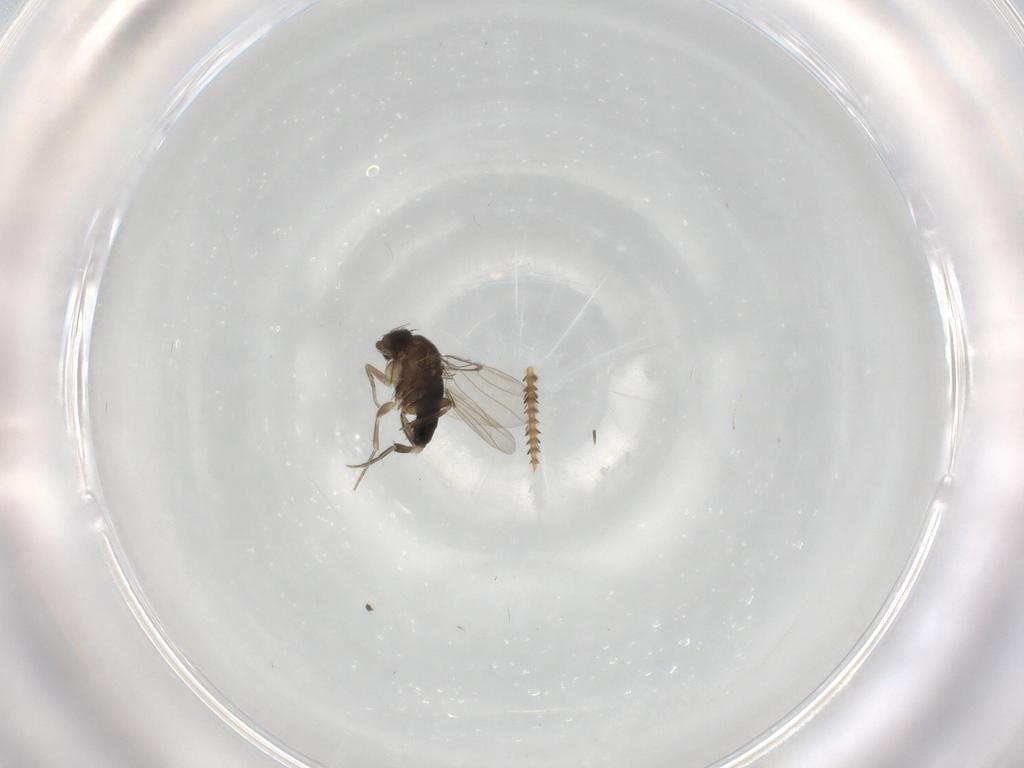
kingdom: Animalia
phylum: Arthropoda
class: Insecta
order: Diptera
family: Phoridae
